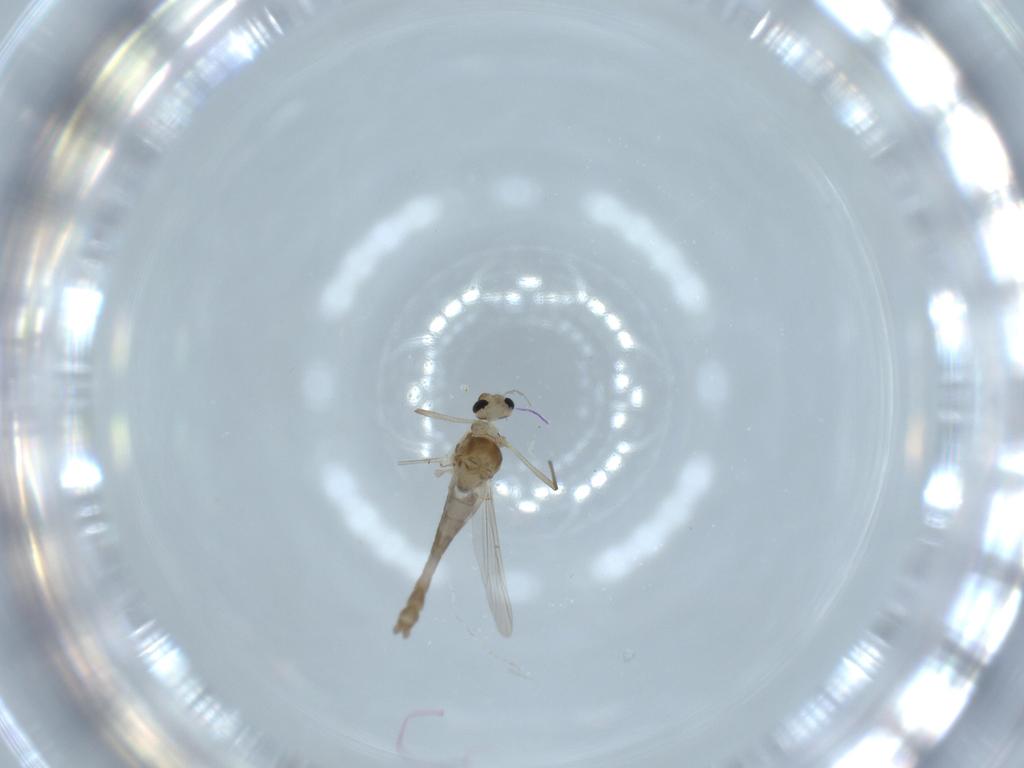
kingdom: Animalia
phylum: Arthropoda
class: Insecta
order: Diptera
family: Chironomidae
